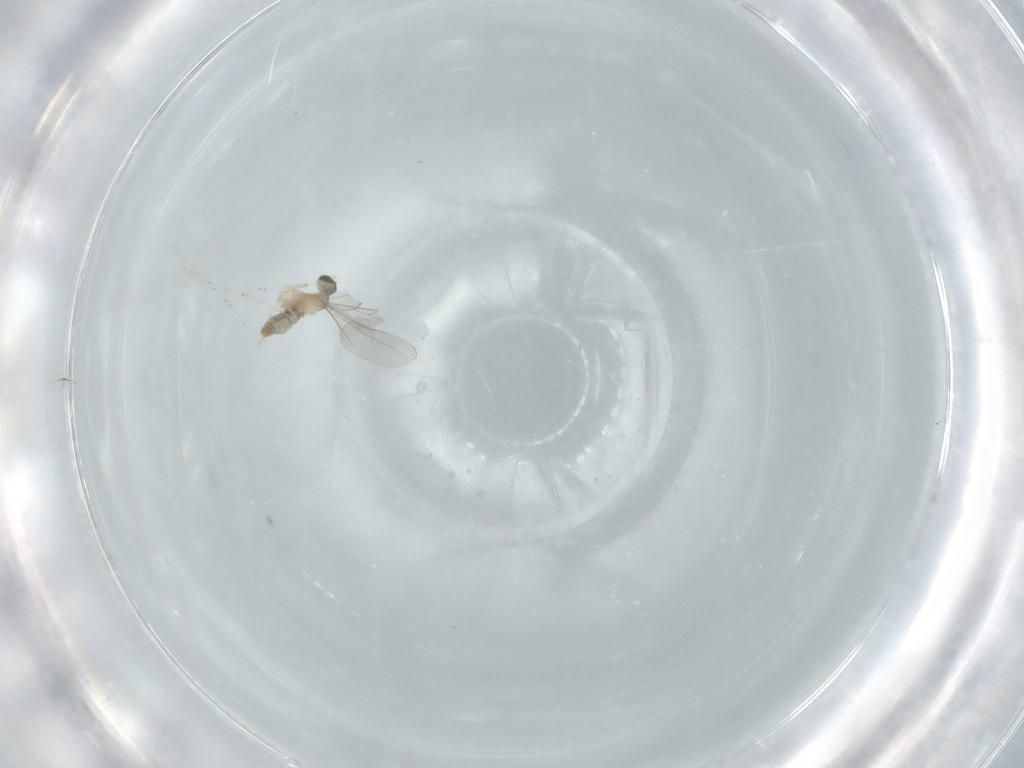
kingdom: Animalia
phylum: Arthropoda
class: Insecta
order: Diptera
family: Cecidomyiidae
